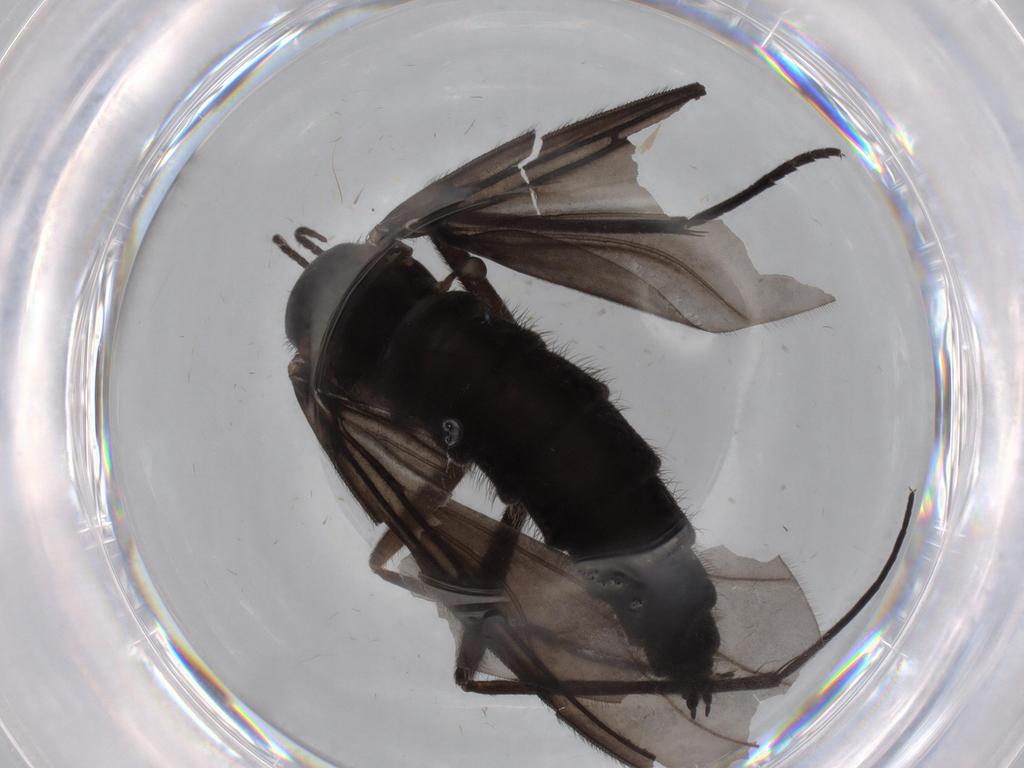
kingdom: Animalia
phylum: Arthropoda
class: Insecta
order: Diptera
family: Sciaridae
